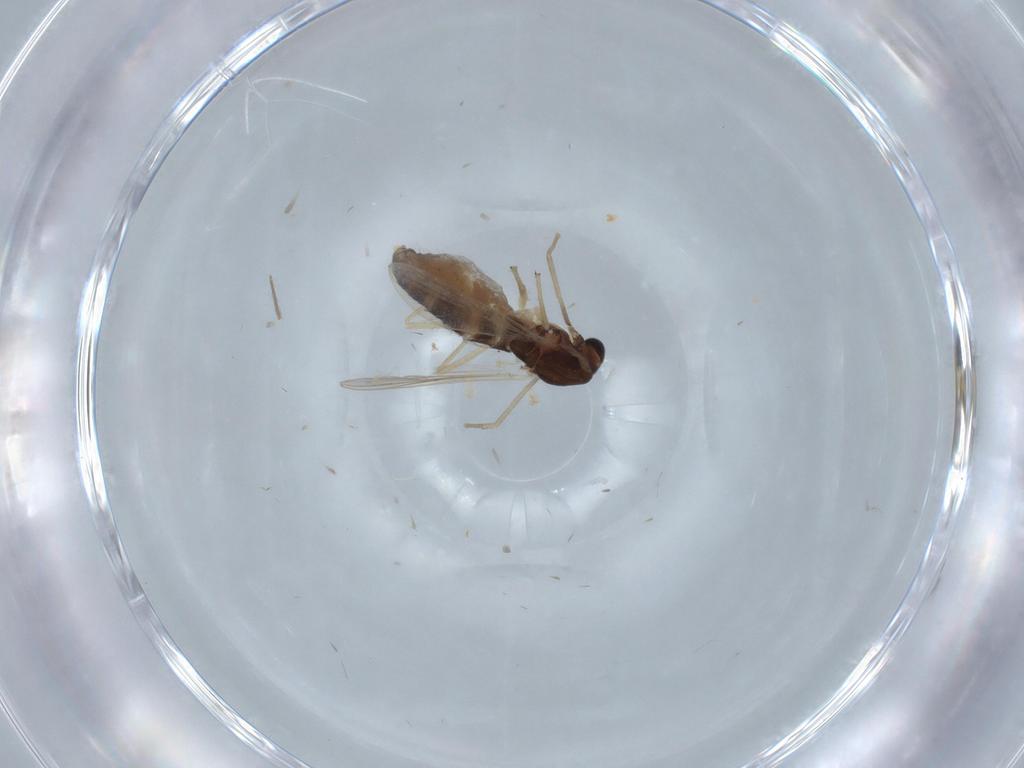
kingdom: Animalia
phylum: Arthropoda
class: Insecta
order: Diptera
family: Chironomidae
